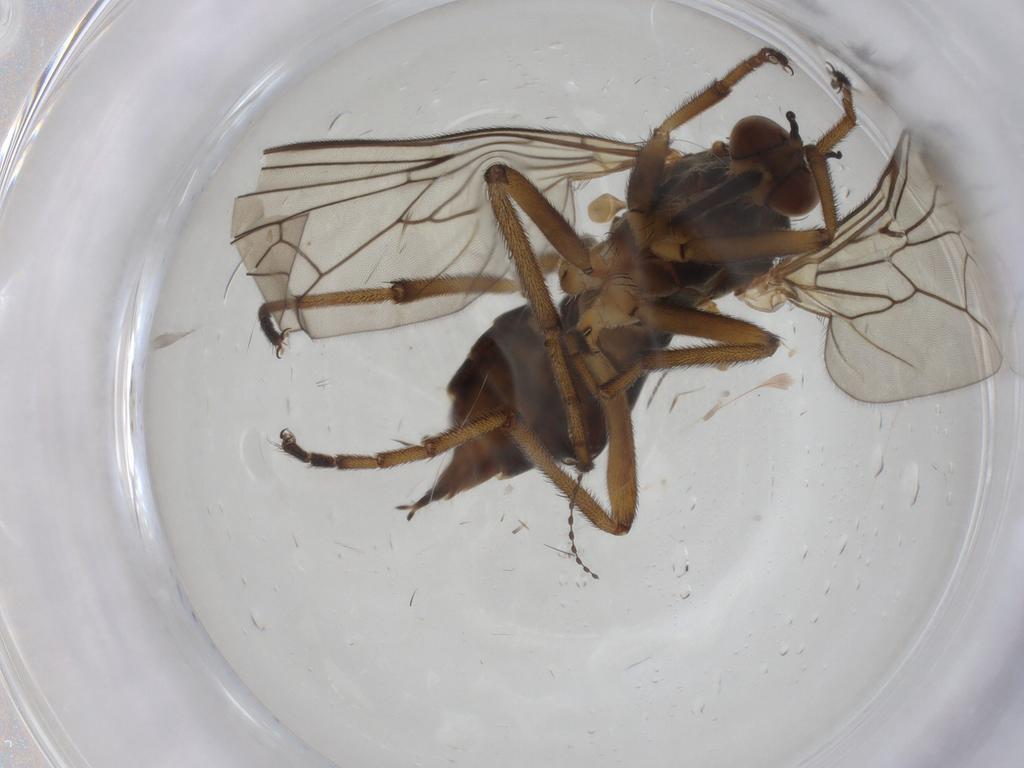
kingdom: Animalia
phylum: Arthropoda
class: Insecta
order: Diptera
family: Empididae
